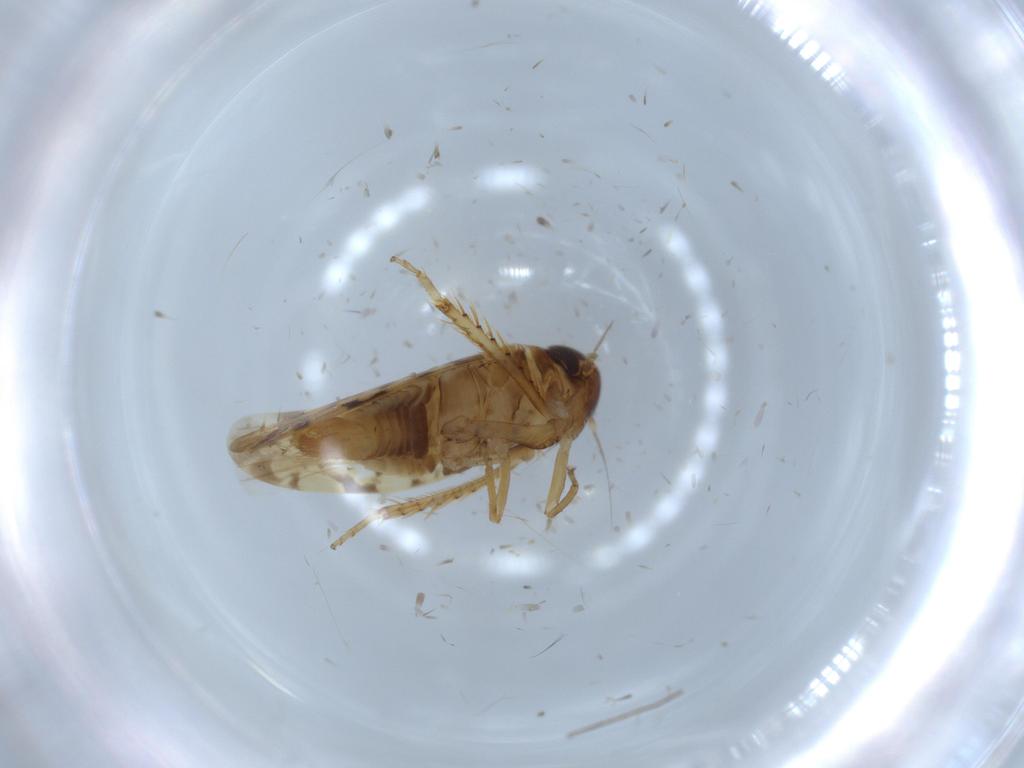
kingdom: Animalia
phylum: Arthropoda
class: Insecta
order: Hemiptera
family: Cicadellidae
